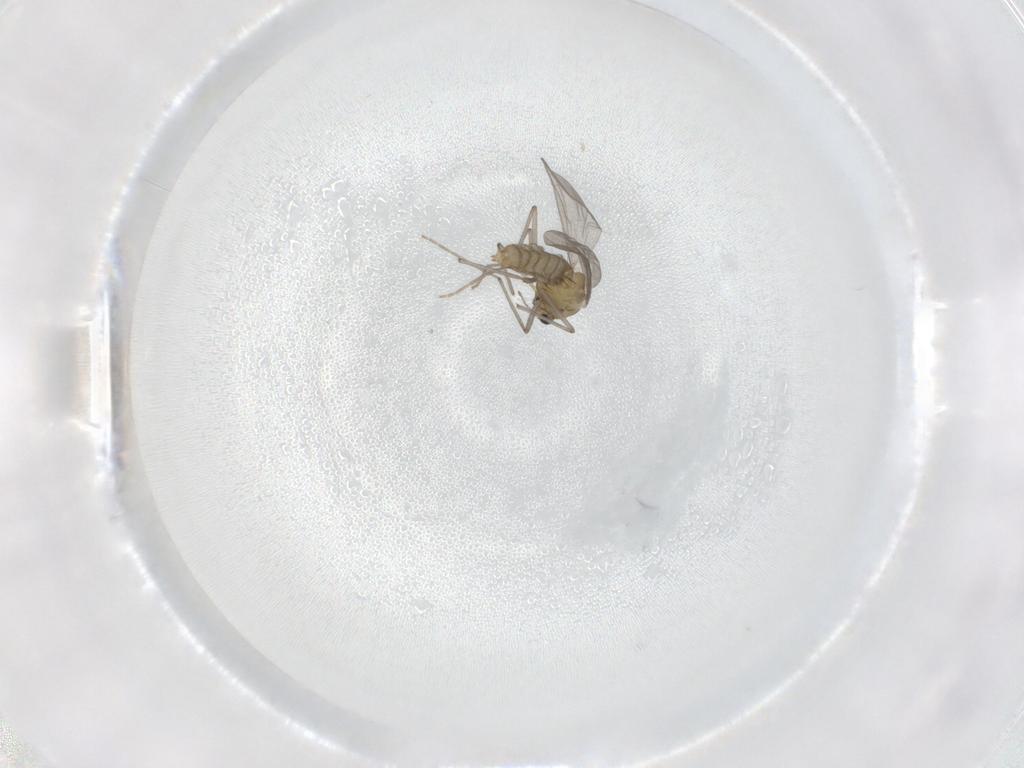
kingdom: Animalia
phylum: Arthropoda
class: Insecta
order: Diptera
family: Chironomidae
